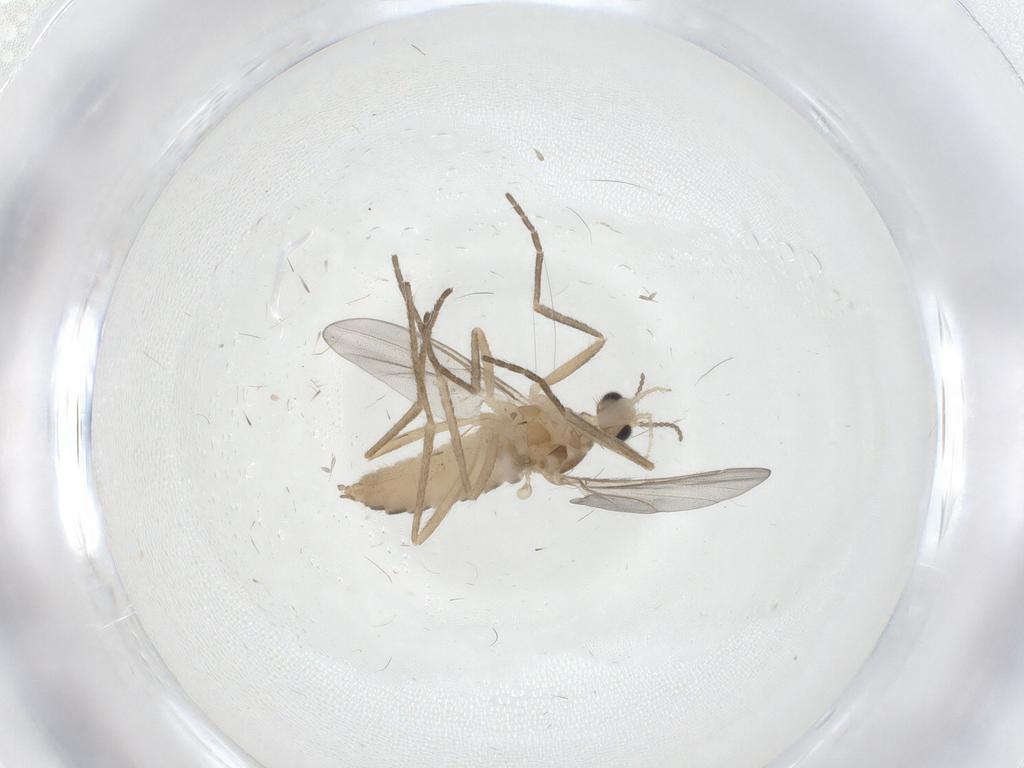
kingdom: Animalia
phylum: Arthropoda
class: Insecta
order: Diptera
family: Cecidomyiidae
